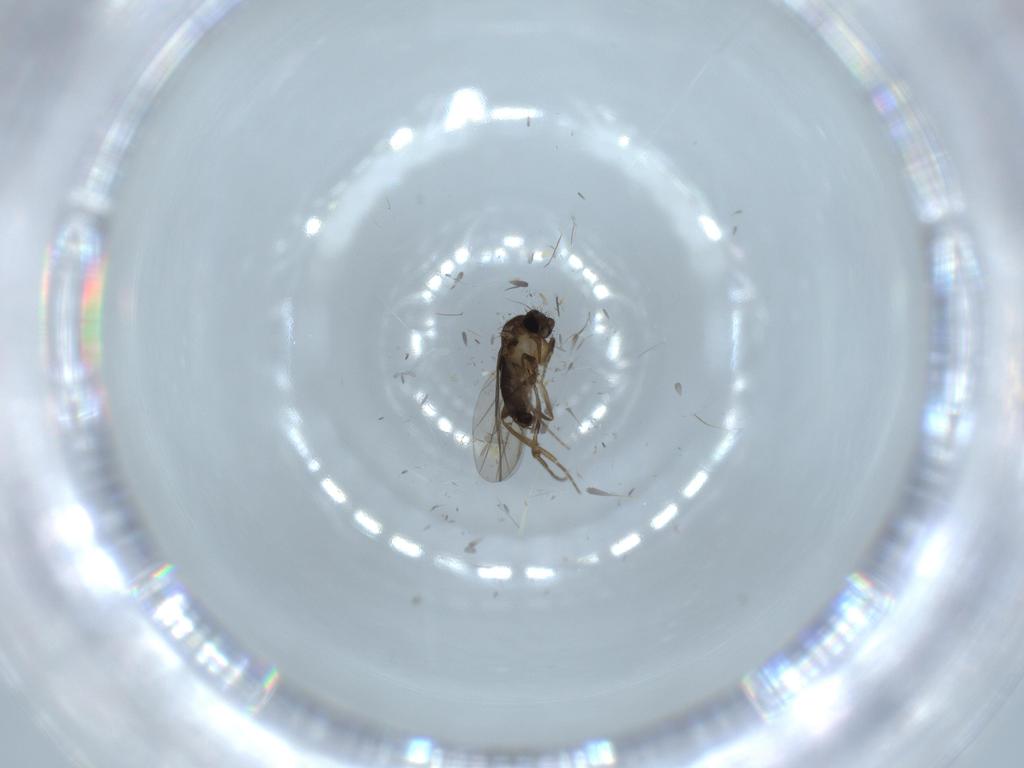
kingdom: Animalia
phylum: Arthropoda
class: Insecta
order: Diptera
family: Phoridae
